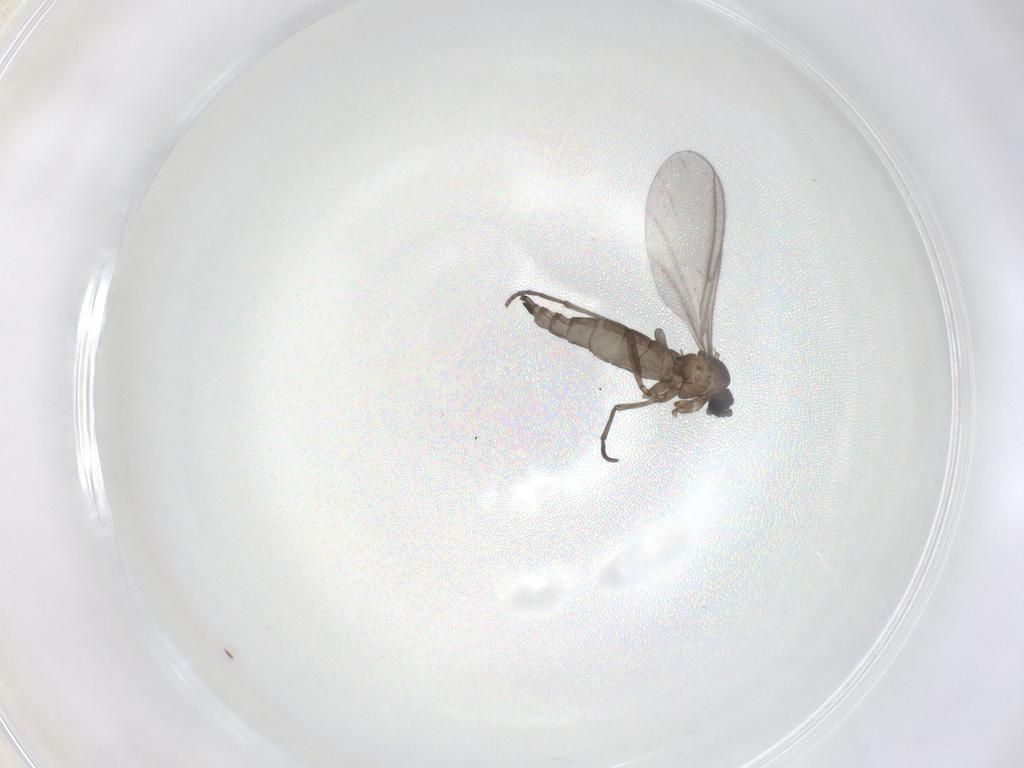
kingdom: Animalia
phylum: Arthropoda
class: Insecta
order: Diptera
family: Sciaridae
